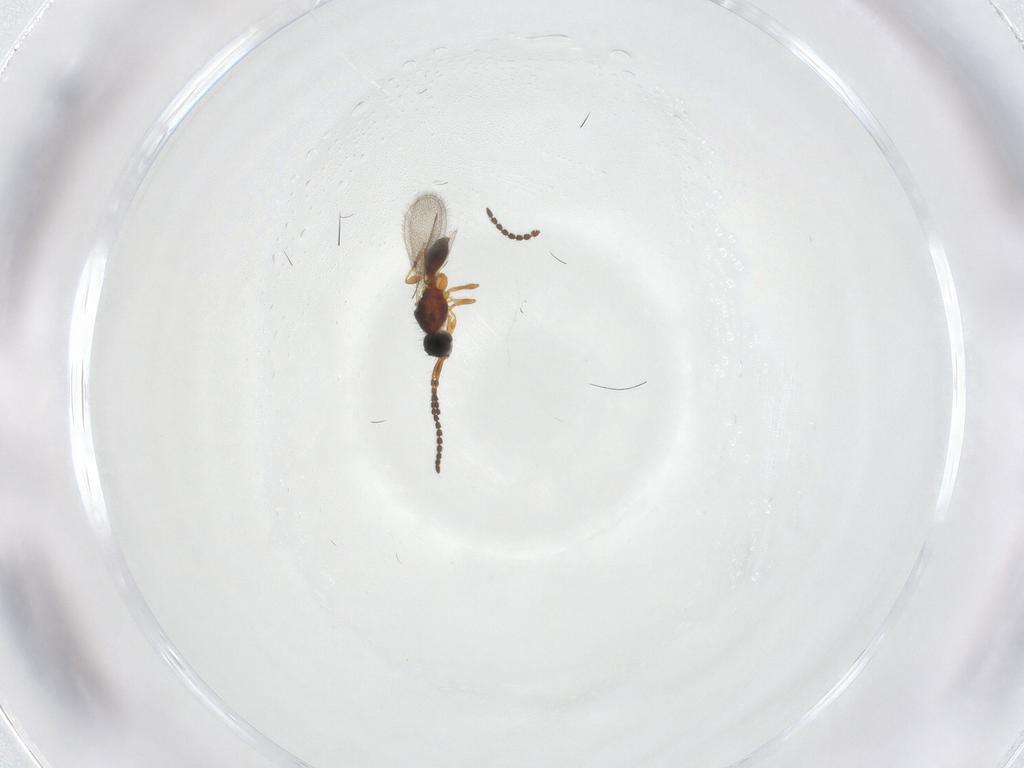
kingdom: Animalia
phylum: Arthropoda
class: Insecta
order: Hymenoptera
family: Diapriidae
